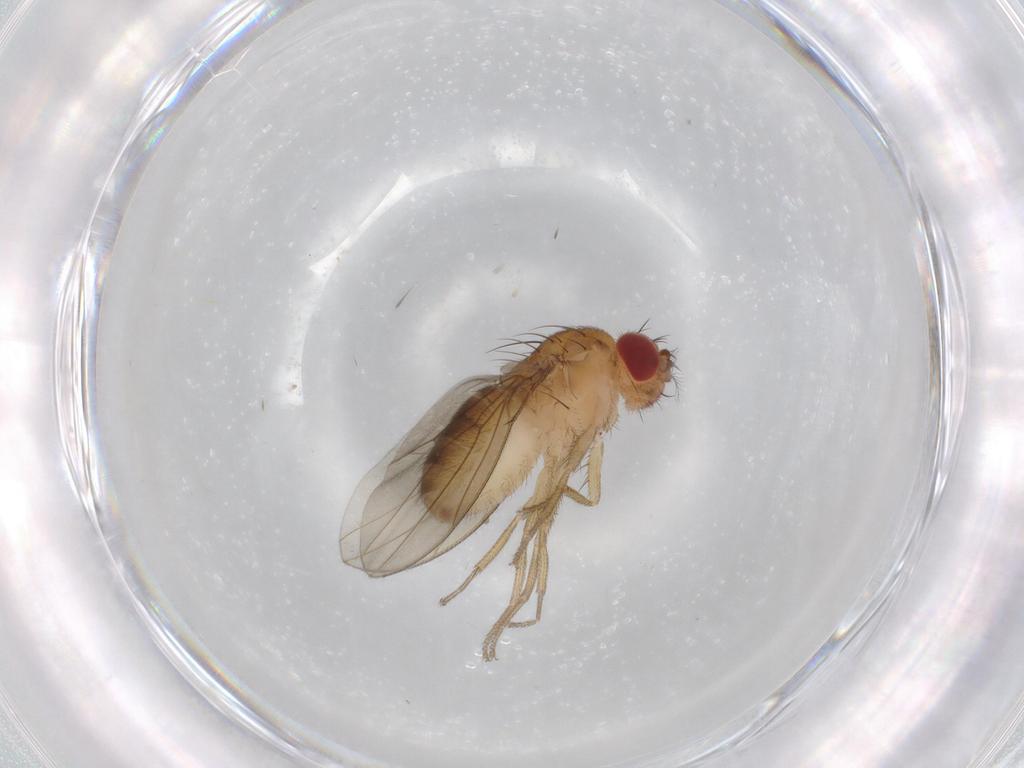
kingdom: Animalia
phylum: Arthropoda
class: Insecta
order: Diptera
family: Drosophilidae
